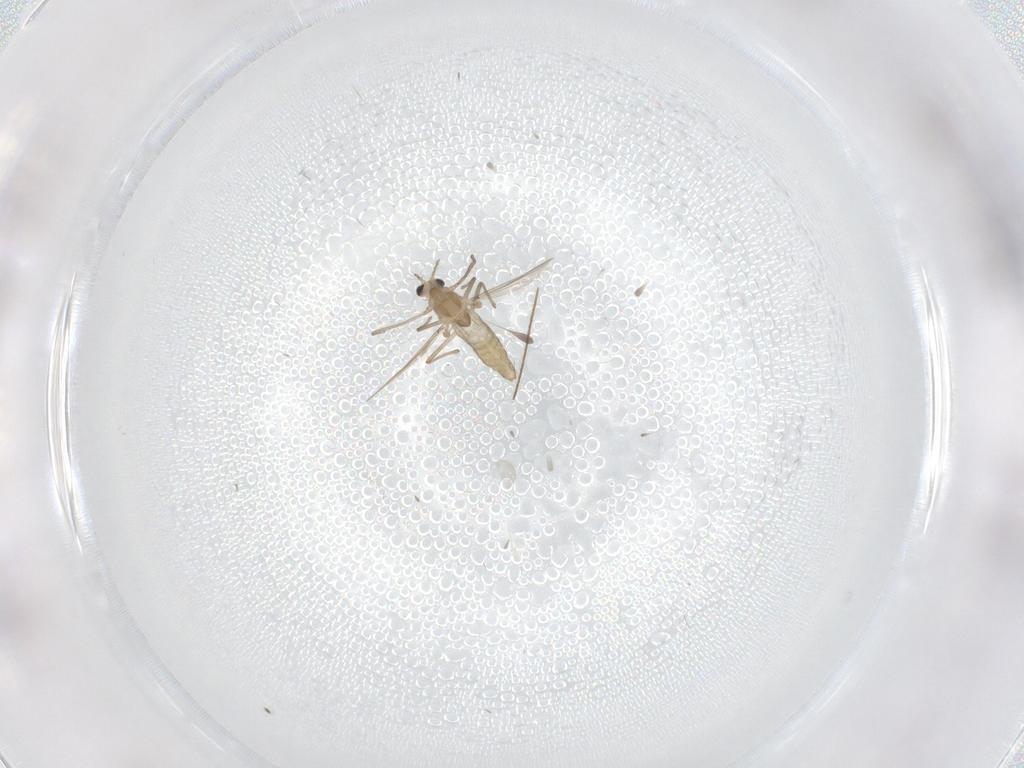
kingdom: Animalia
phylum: Arthropoda
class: Insecta
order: Diptera
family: Chironomidae
